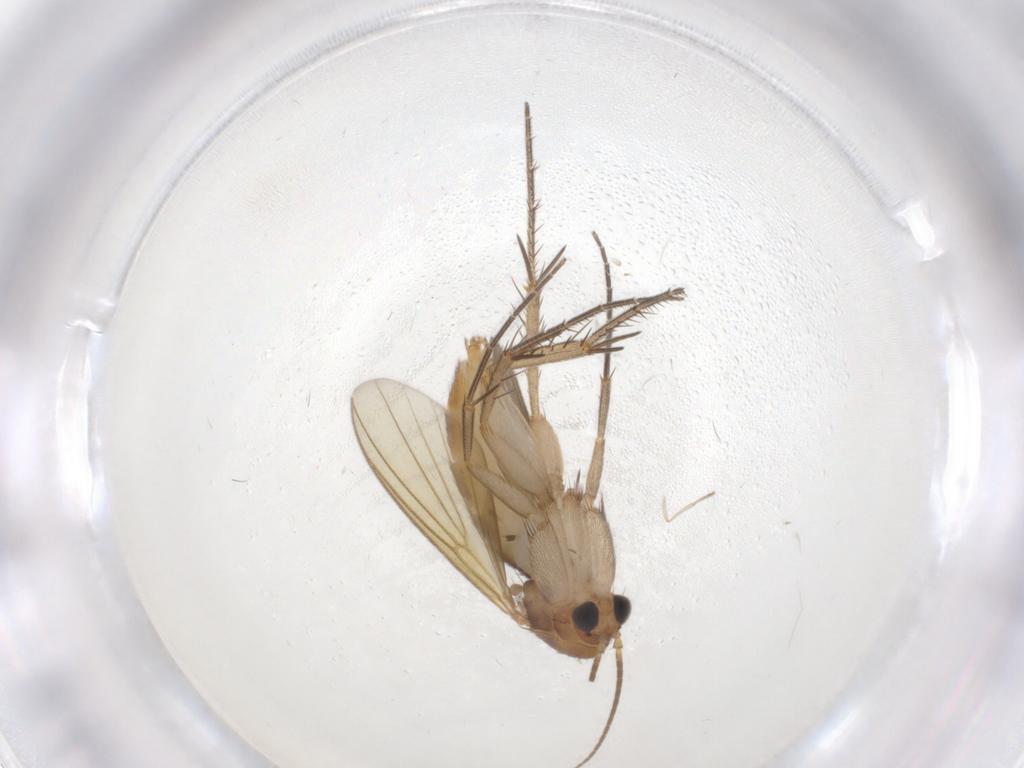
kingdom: Animalia
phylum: Arthropoda
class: Insecta
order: Diptera
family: Mycetophilidae
